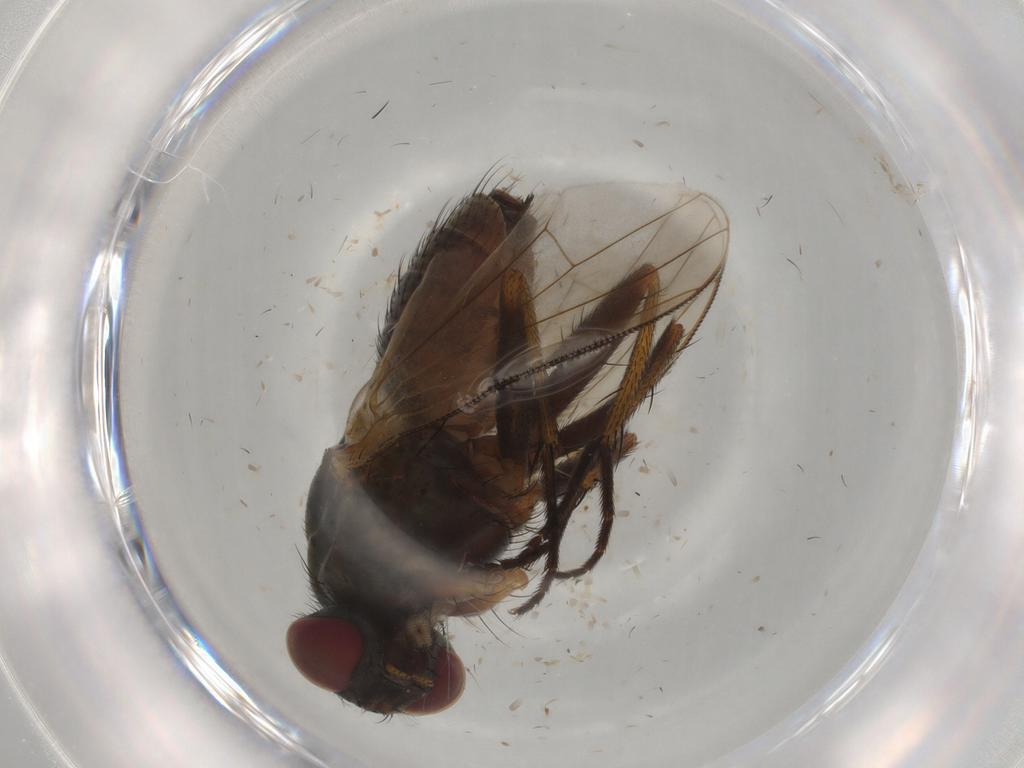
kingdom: Animalia
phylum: Arthropoda
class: Insecta
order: Diptera
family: Muscidae
